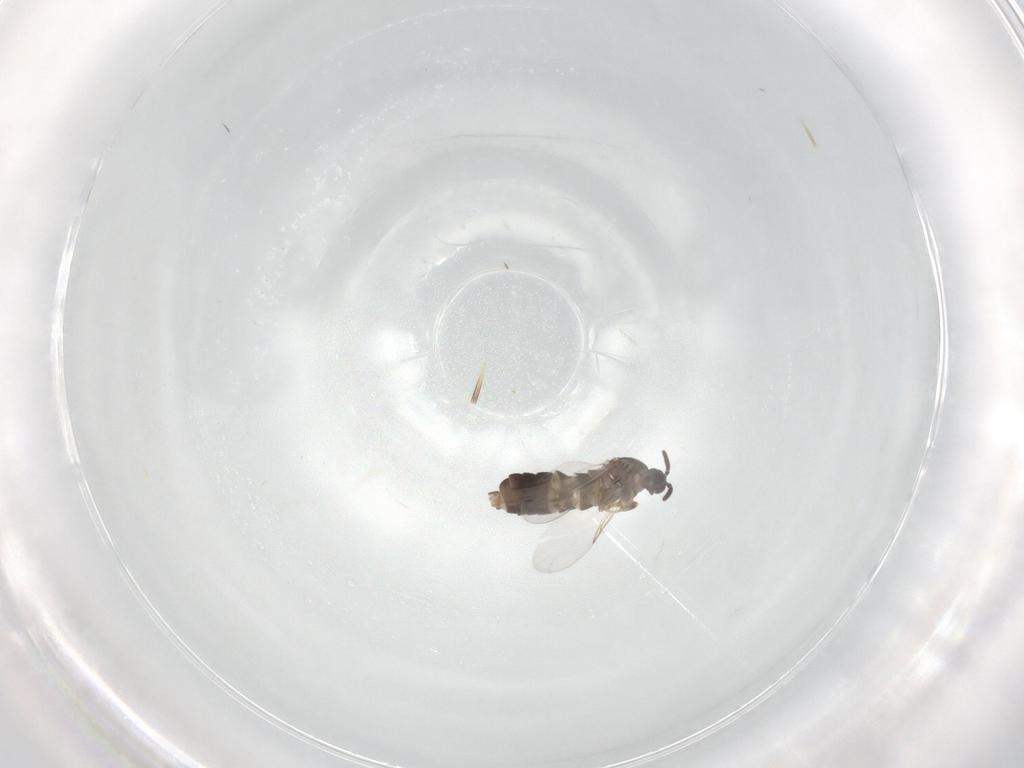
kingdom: Animalia
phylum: Arthropoda
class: Insecta
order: Diptera
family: Scatopsidae
